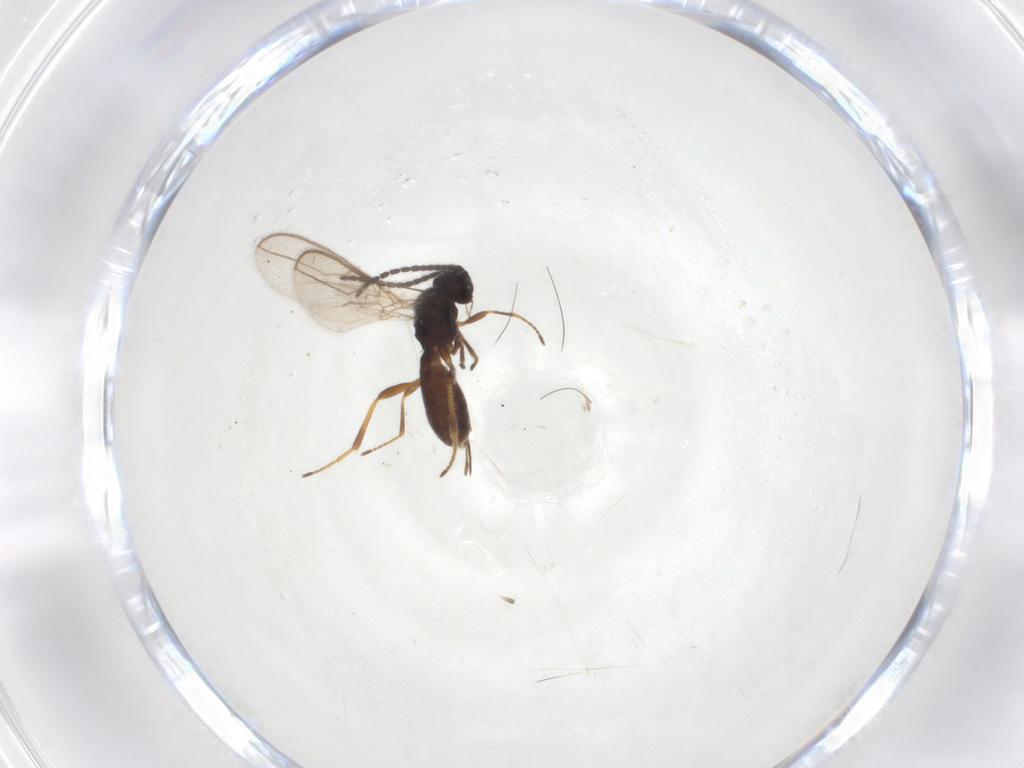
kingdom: Animalia
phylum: Arthropoda
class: Insecta
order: Hymenoptera
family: Braconidae
